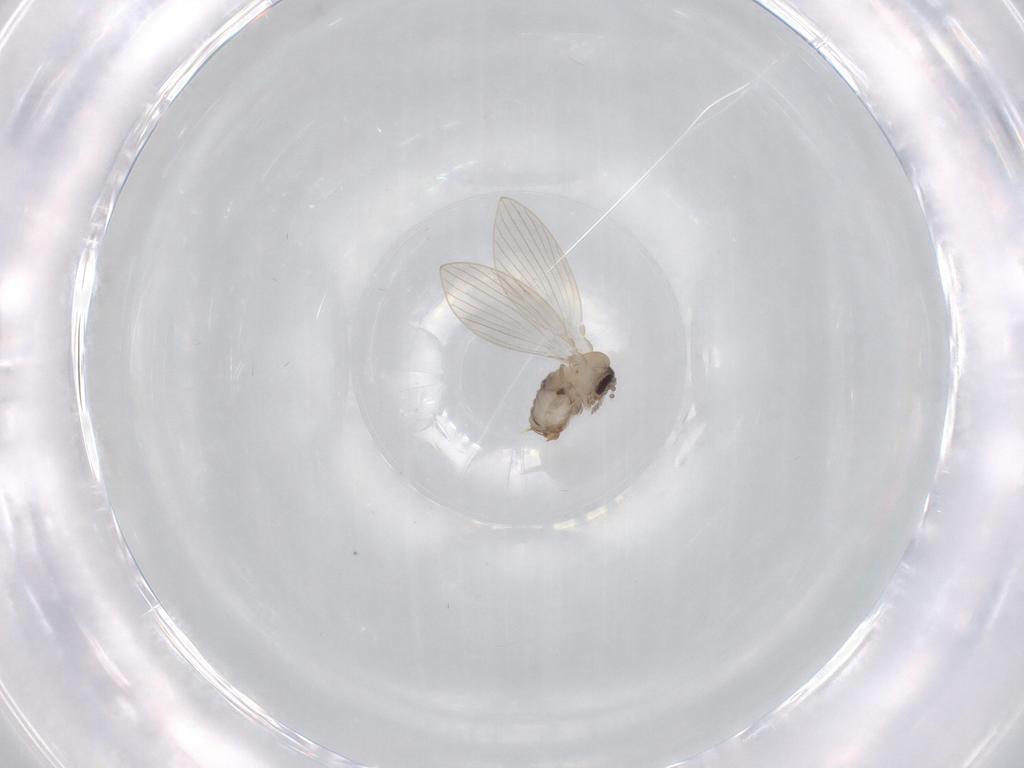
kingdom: Animalia
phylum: Arthropoda
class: Insecta
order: Diptera
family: Psychodidae
